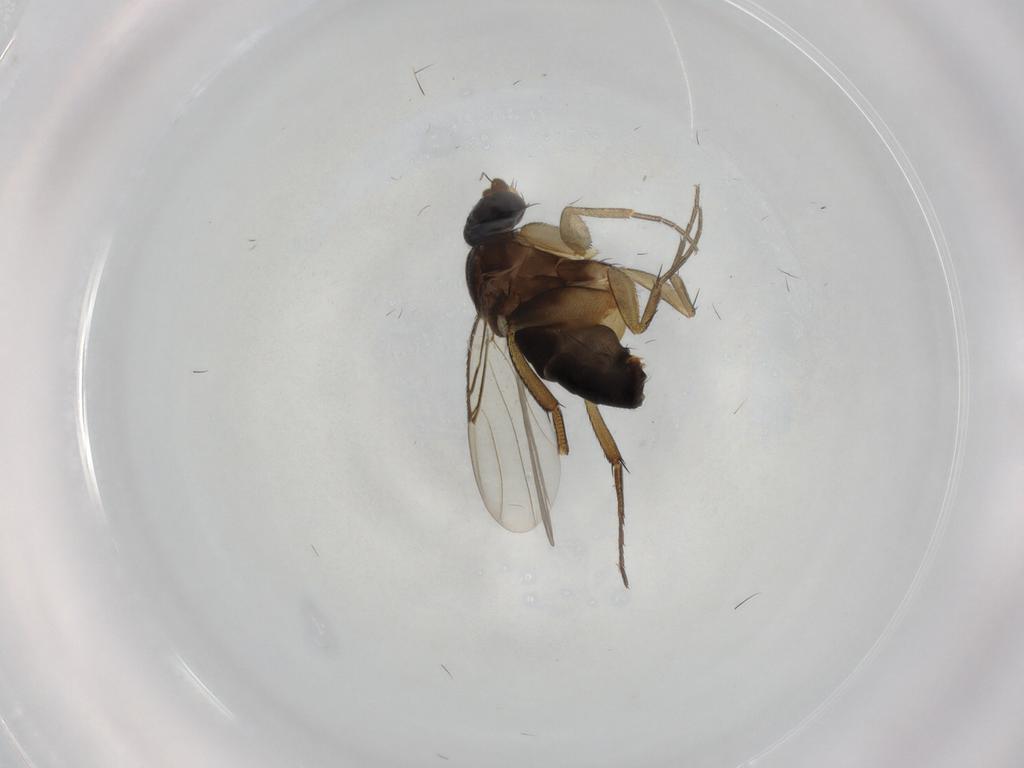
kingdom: Animalia
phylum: Arthropoda
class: Insecta
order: Diptera
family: Phoridae
